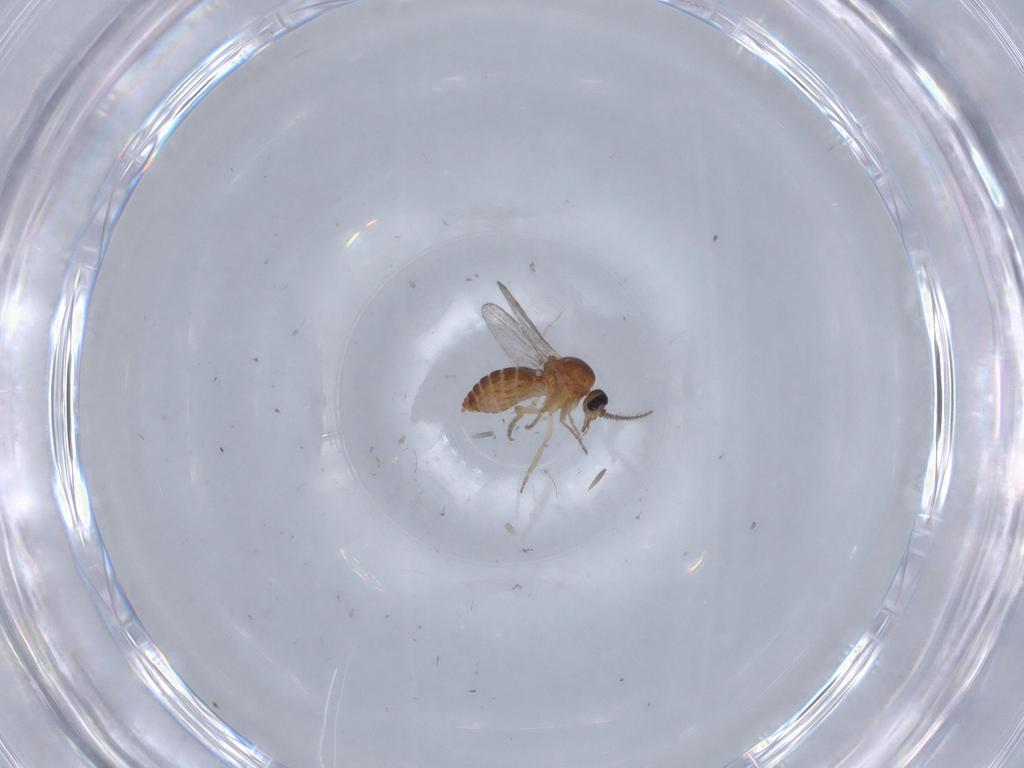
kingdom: Animalia
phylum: Arthropoda
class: Insecta
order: Diptera
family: Ceratopogonidae
